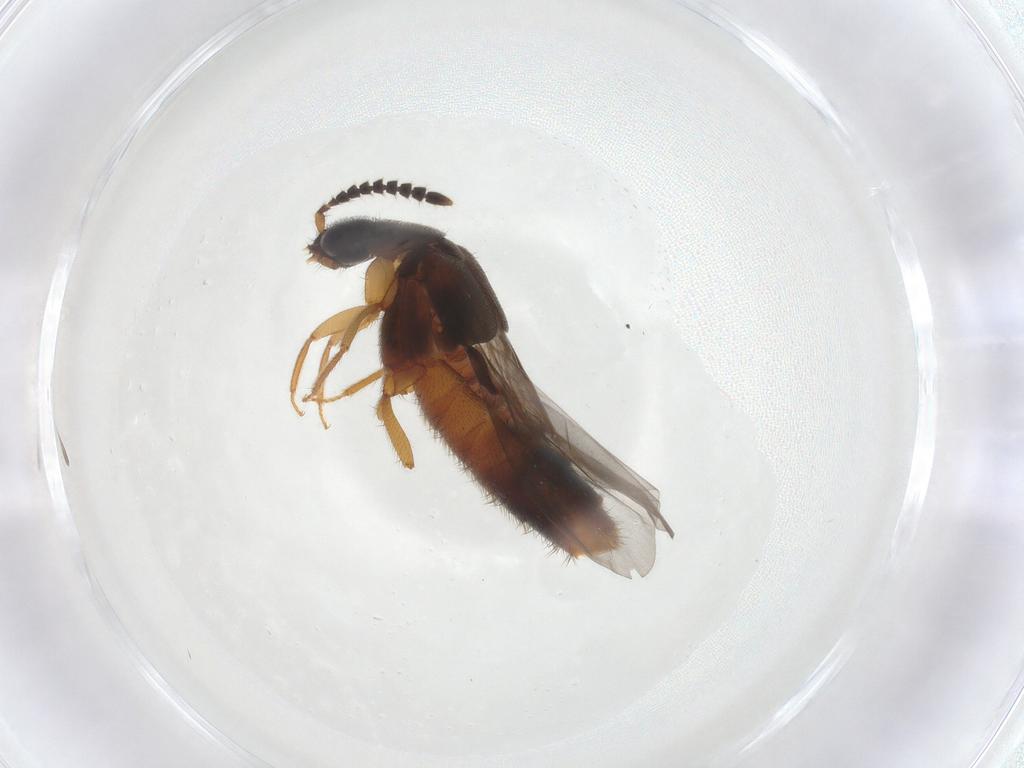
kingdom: Animalia
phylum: Arthropoda
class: Insecta
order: Coleoptera
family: Staphylinidae
